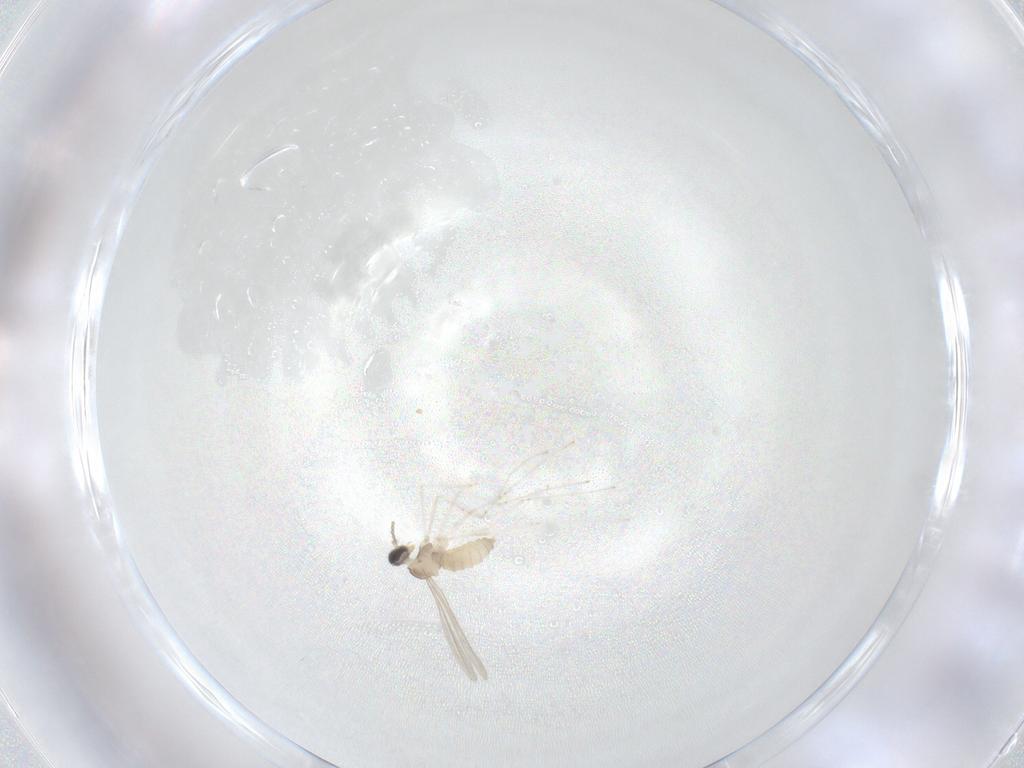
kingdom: Animalia
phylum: Arthropoda
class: Insecta
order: Diptera
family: Cecidomyiidae
